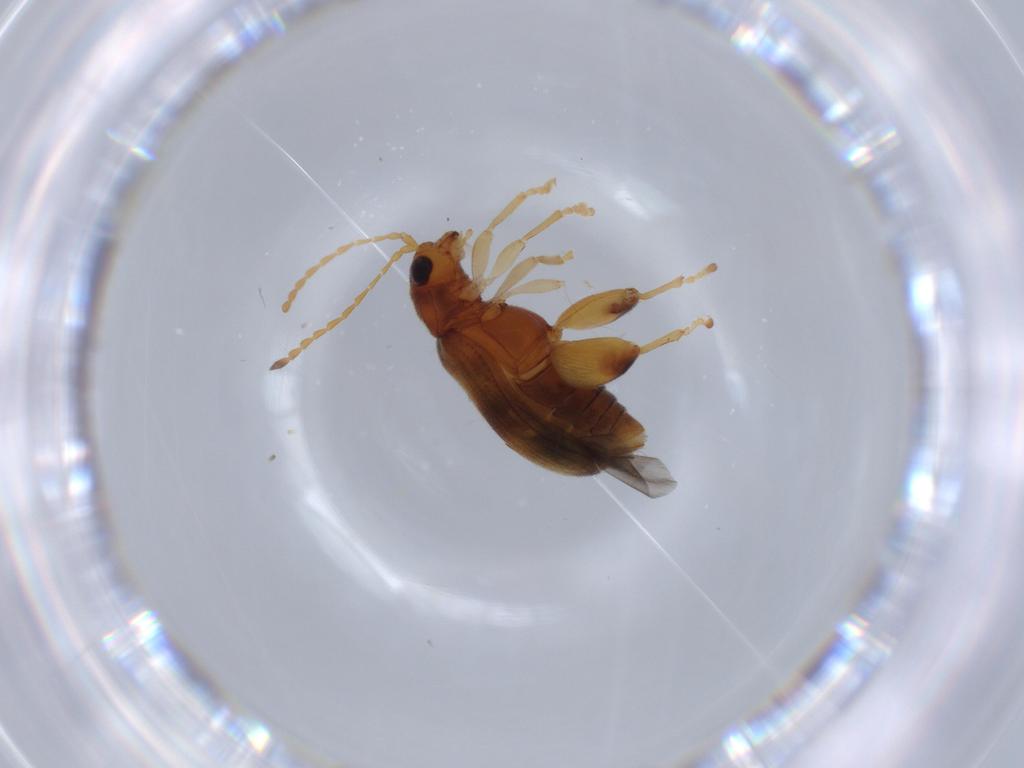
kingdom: Animalia
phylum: Arthropoda
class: Insecta
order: Coleoptera
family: Chrysomelidae
